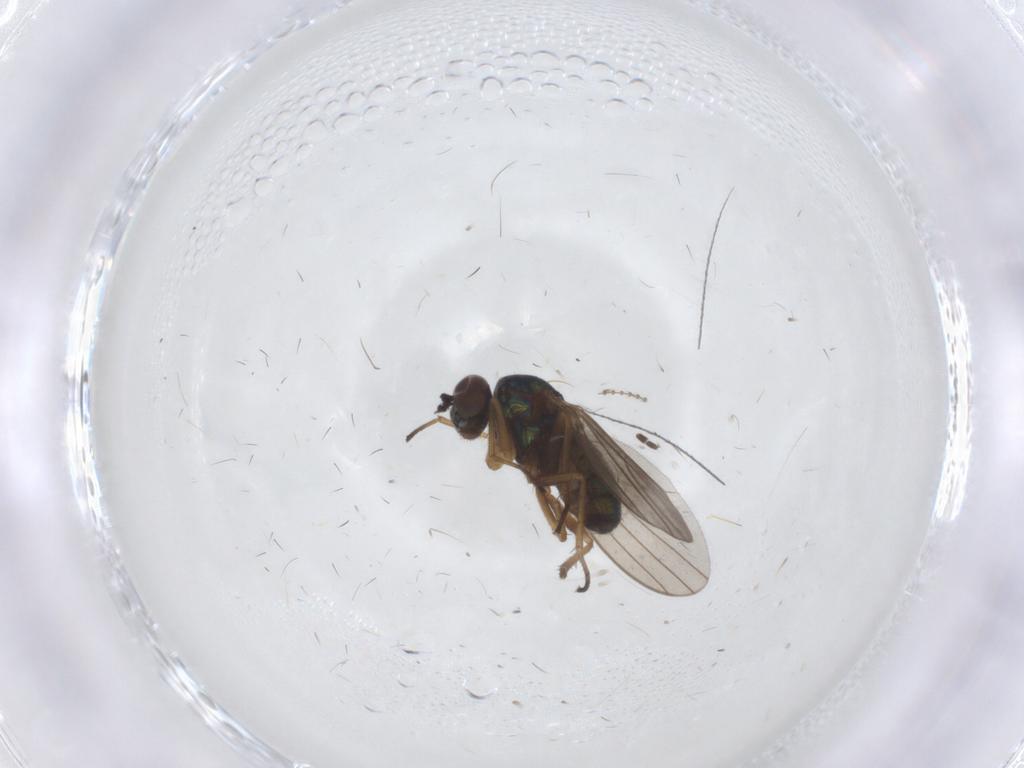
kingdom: Animalia
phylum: Arthropoda
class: Insecta
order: Diptera
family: Dolichopodidae
